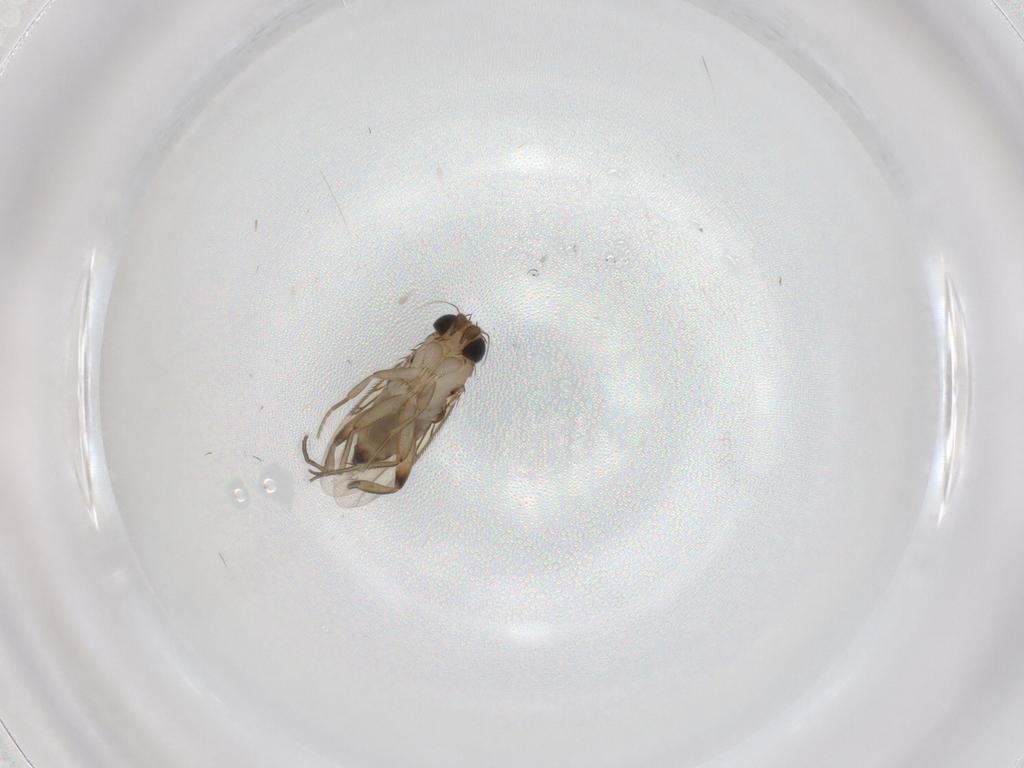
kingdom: Animalia
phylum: Arthropoda
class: Insecta
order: Diptera
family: Phoridae
